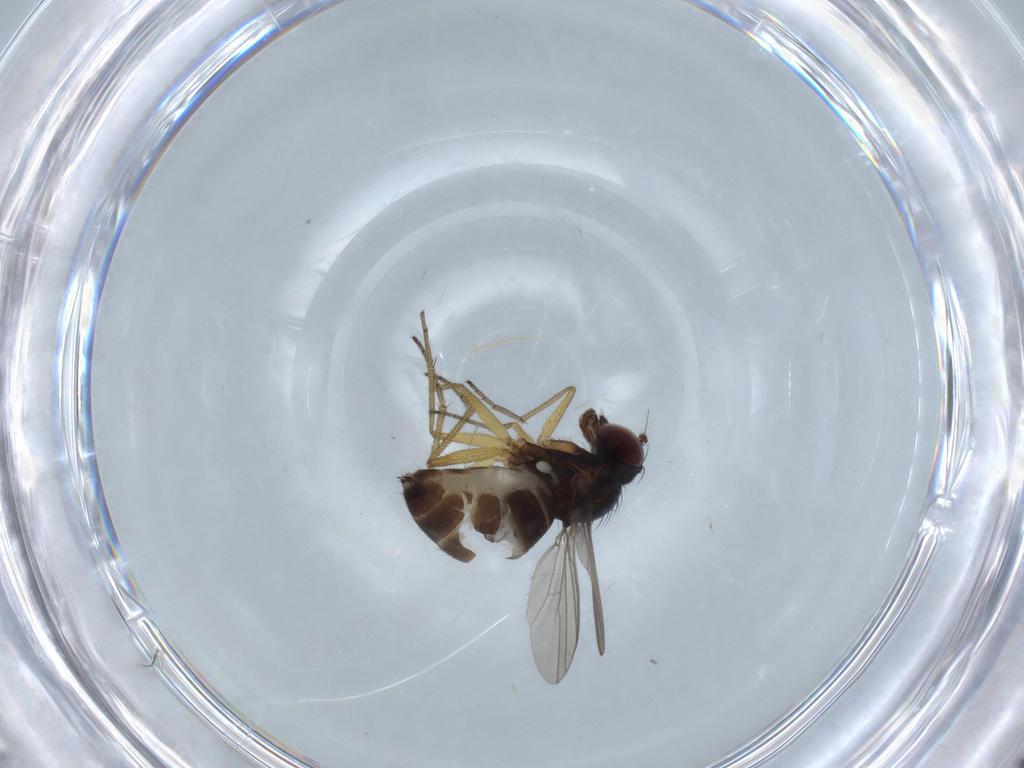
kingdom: Animalia
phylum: Arthropoda
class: Insecta
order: Diptera
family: Dolichopodidae
